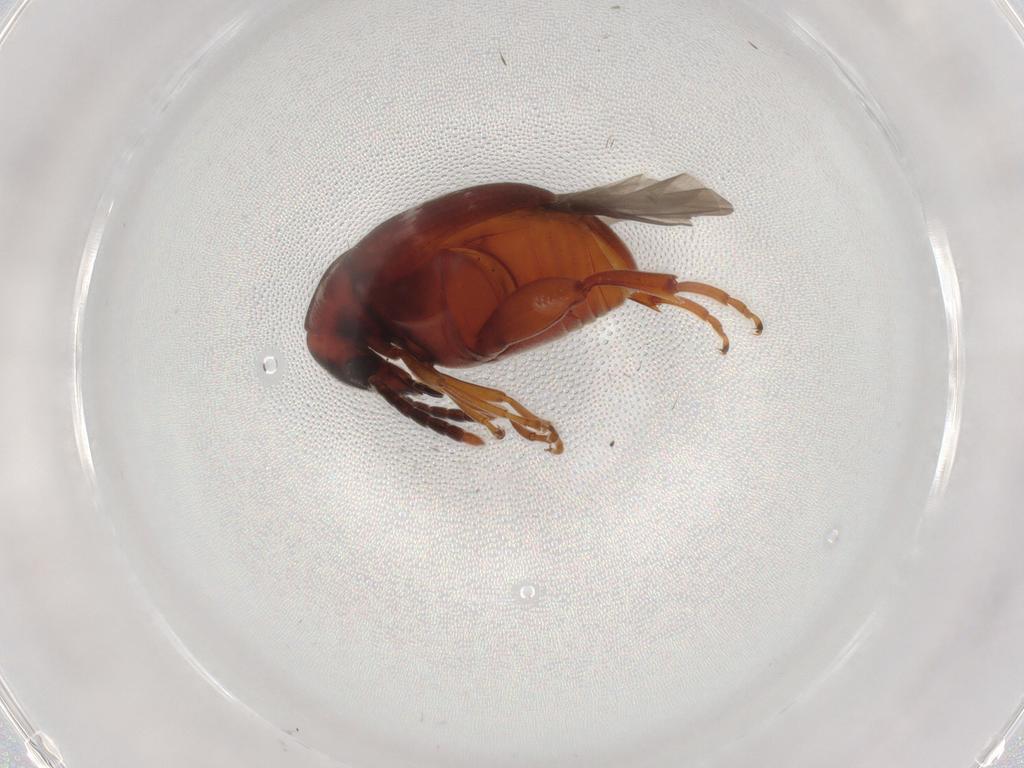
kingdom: Animalia
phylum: Arthropoda
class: Insecta
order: Coleoptera
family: Chrysomelidae
